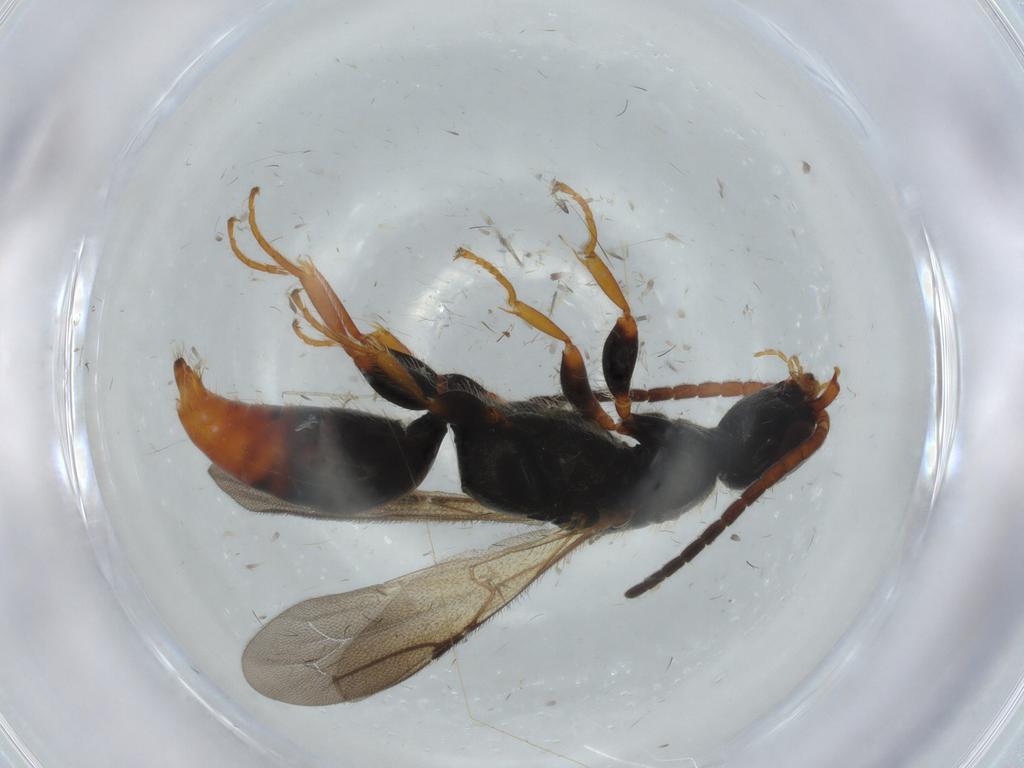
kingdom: Animalia
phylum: Arthropoda
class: Insecta
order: Hymenoptera
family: Bethylidae
